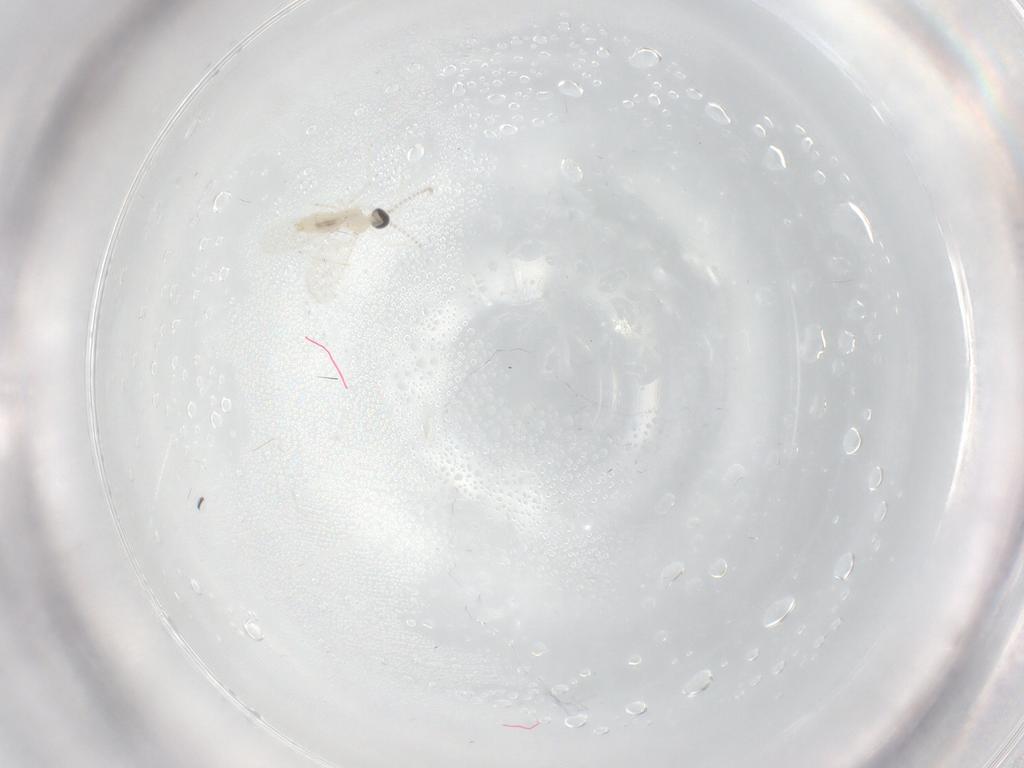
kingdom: Animalia
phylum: Arthropoda
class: Insecta
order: Diptera
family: Cecidomyiidae
